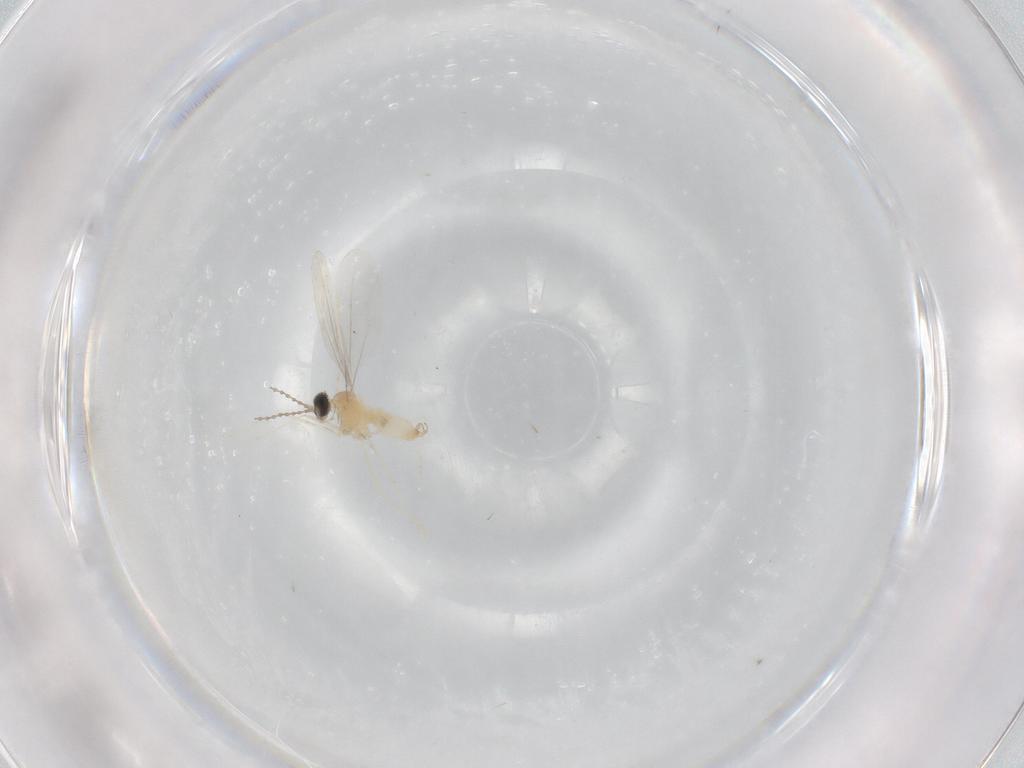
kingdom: Animalia
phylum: Arthropoda
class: Insecta
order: Diptera
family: Cecidomyiidae
